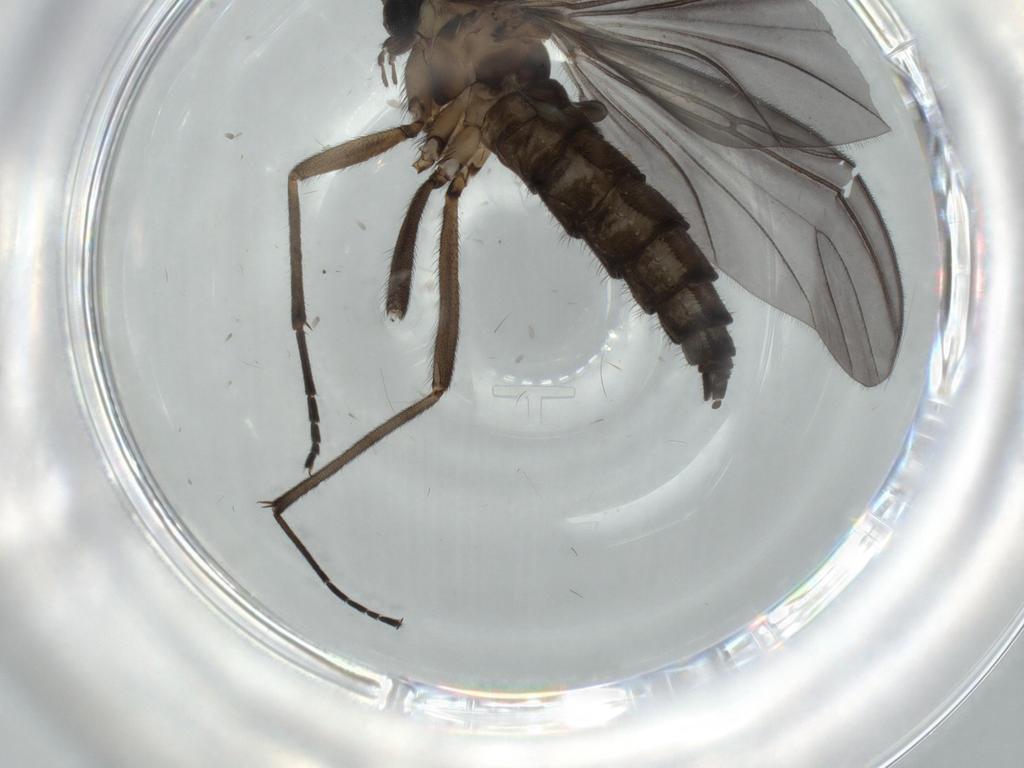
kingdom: Animalia
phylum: Arthropoda
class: Insecta
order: Diptera
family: Sciaridae
